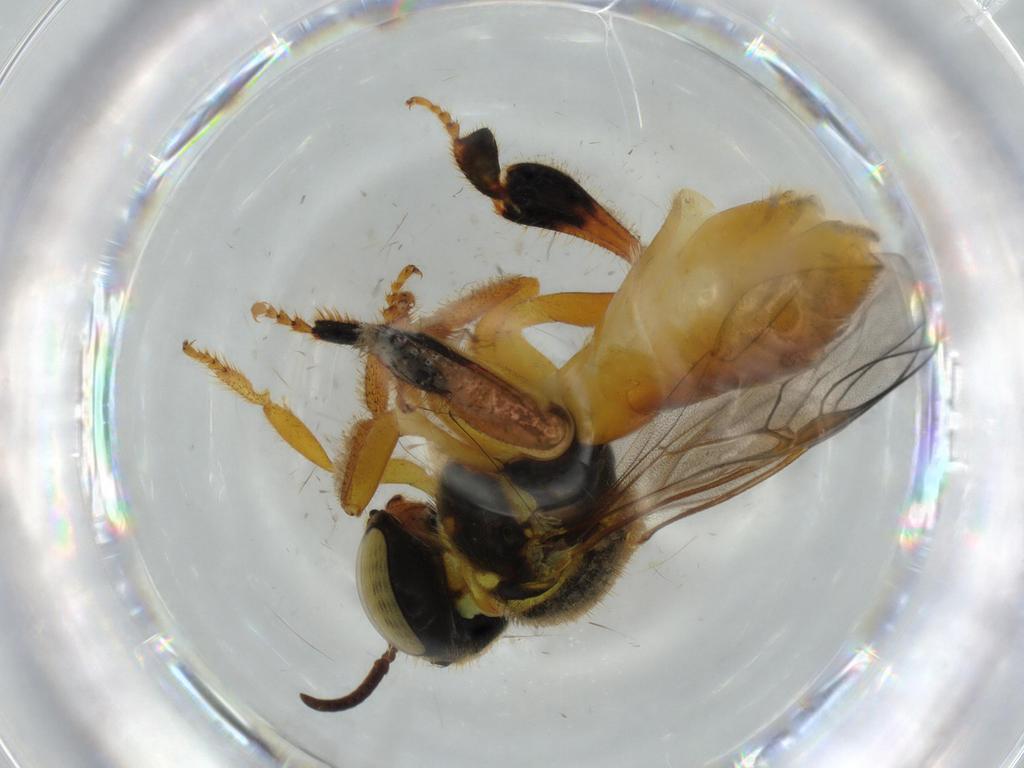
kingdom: Animalia
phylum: Arthropoda
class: Insecta
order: Hymenoptera
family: Apidae
